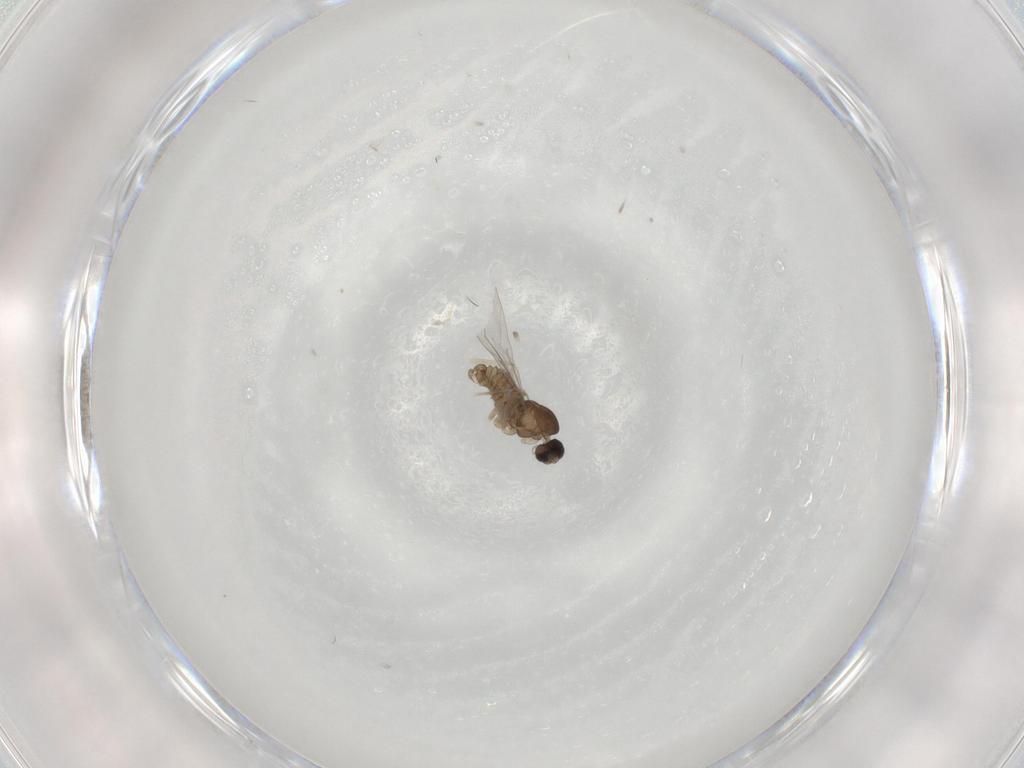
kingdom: Animalia
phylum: Arthropoda
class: Insecta
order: Diptera
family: Cecidomyiidae
